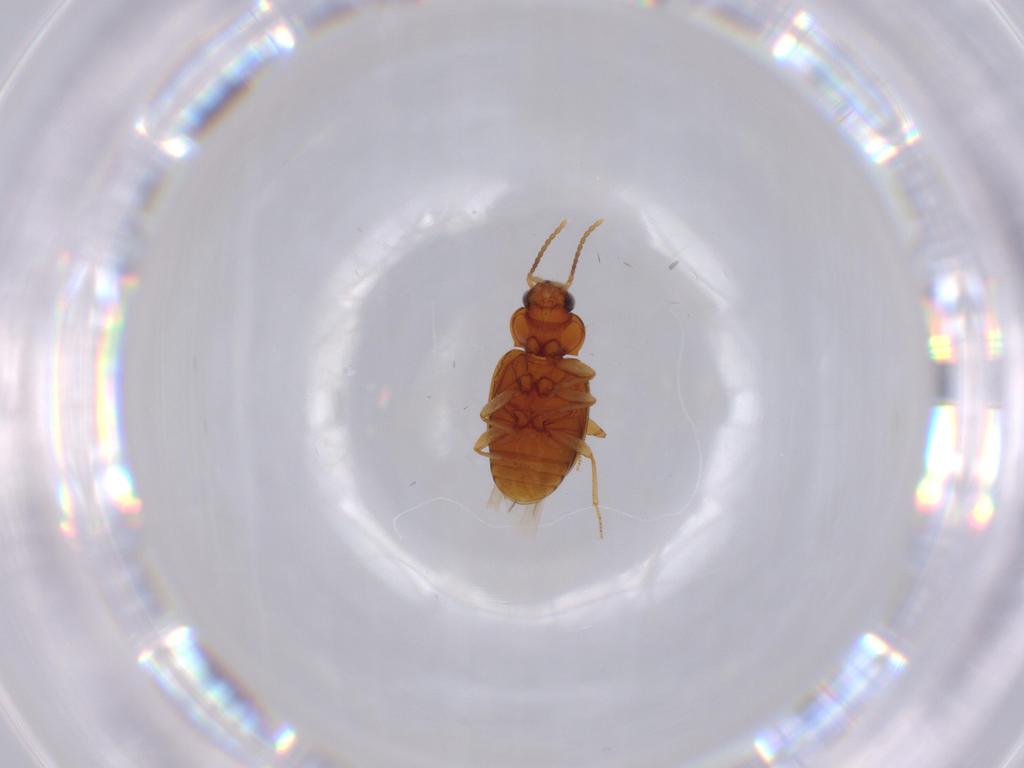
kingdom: Animalia
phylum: Arthropoda
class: Insecta
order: Coleoptera
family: Carabidae
